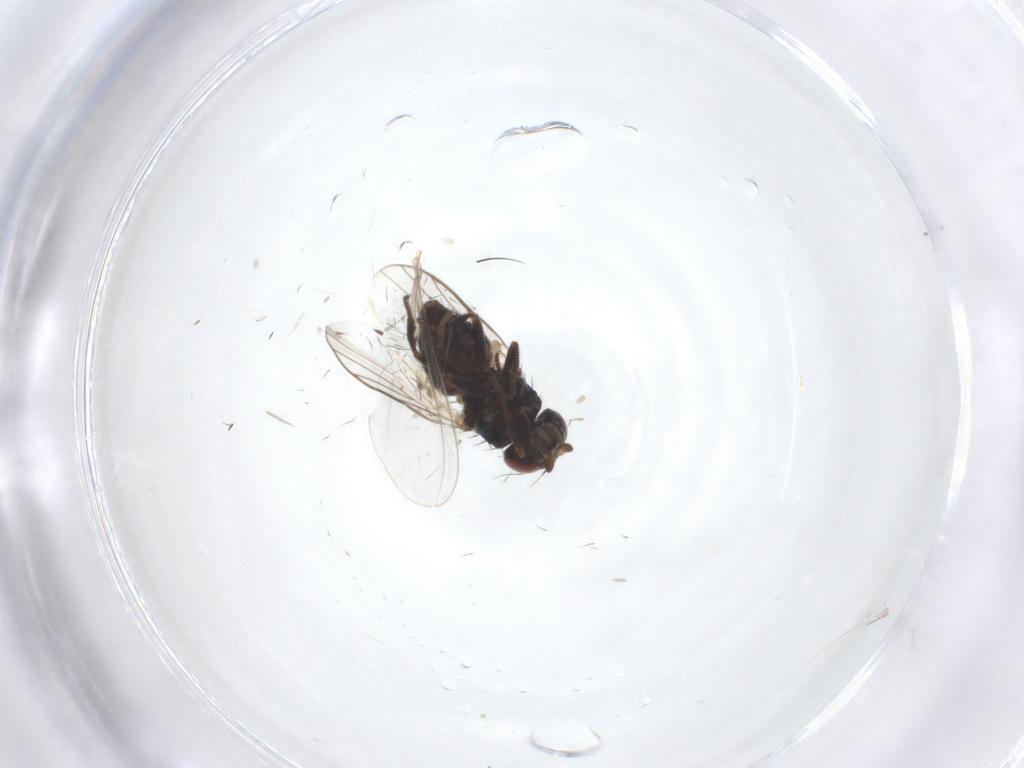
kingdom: Animalia
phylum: Arthropoda
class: Insecta
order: Diptera
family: Chloropidae
